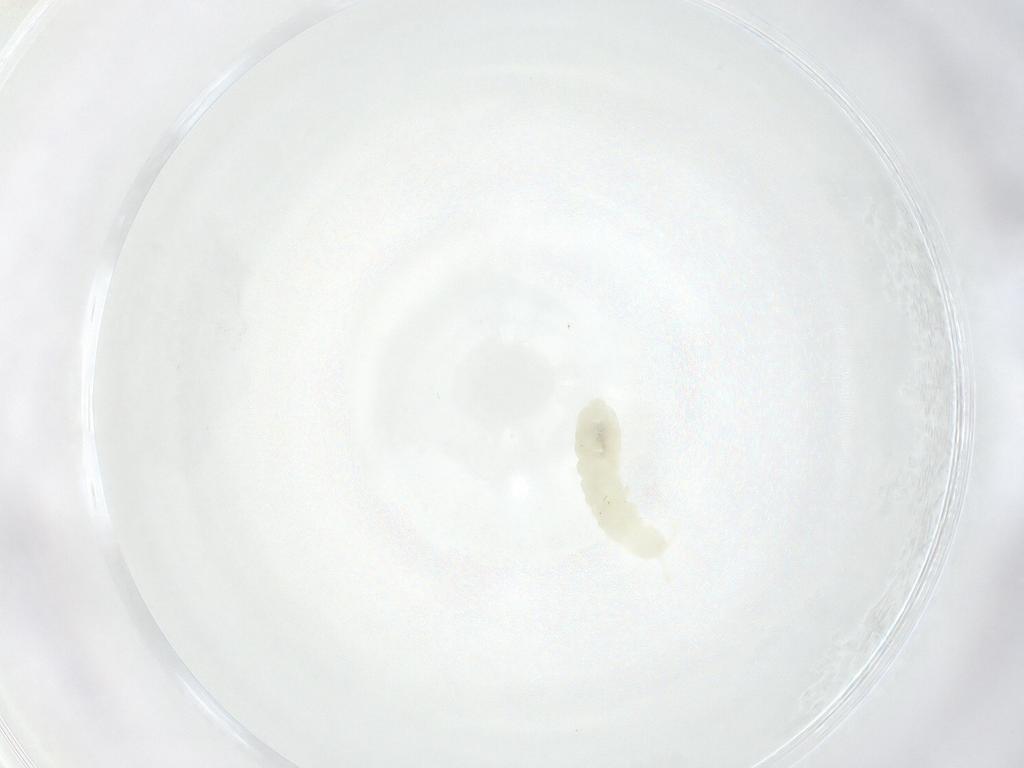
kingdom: Animalia
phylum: Arthropoda
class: Collembola
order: Poduromorpha
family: Onychiuridae
